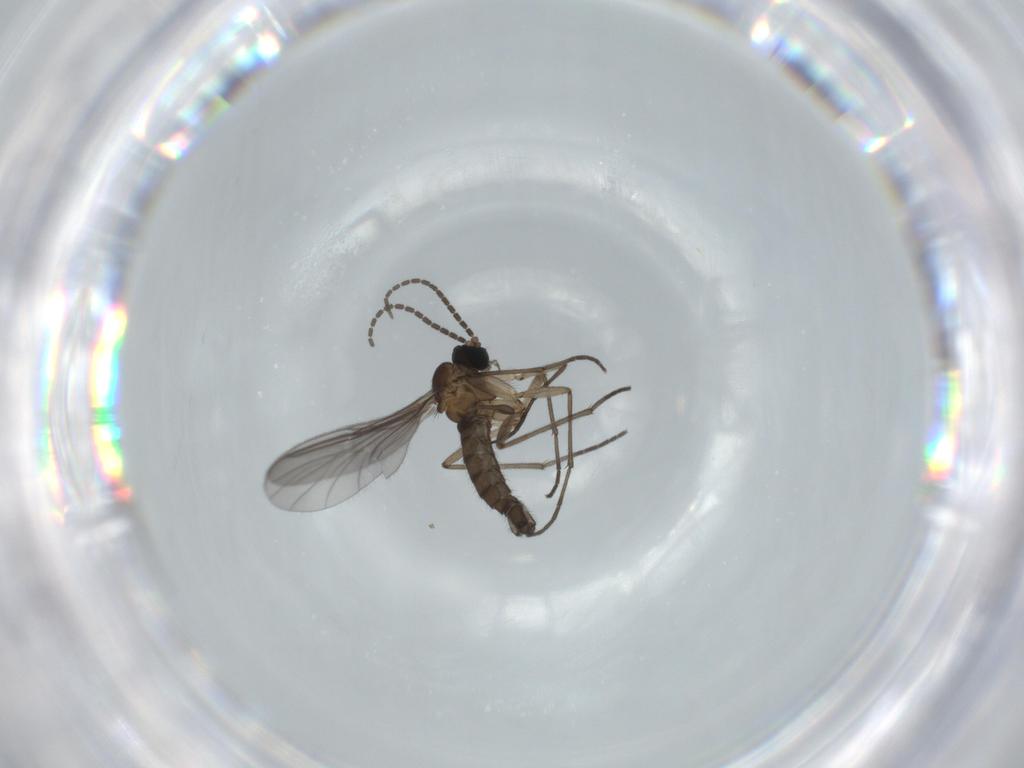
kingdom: Animalia
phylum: Arthropoda
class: Insecta
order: Diptera
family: Sciaridae
